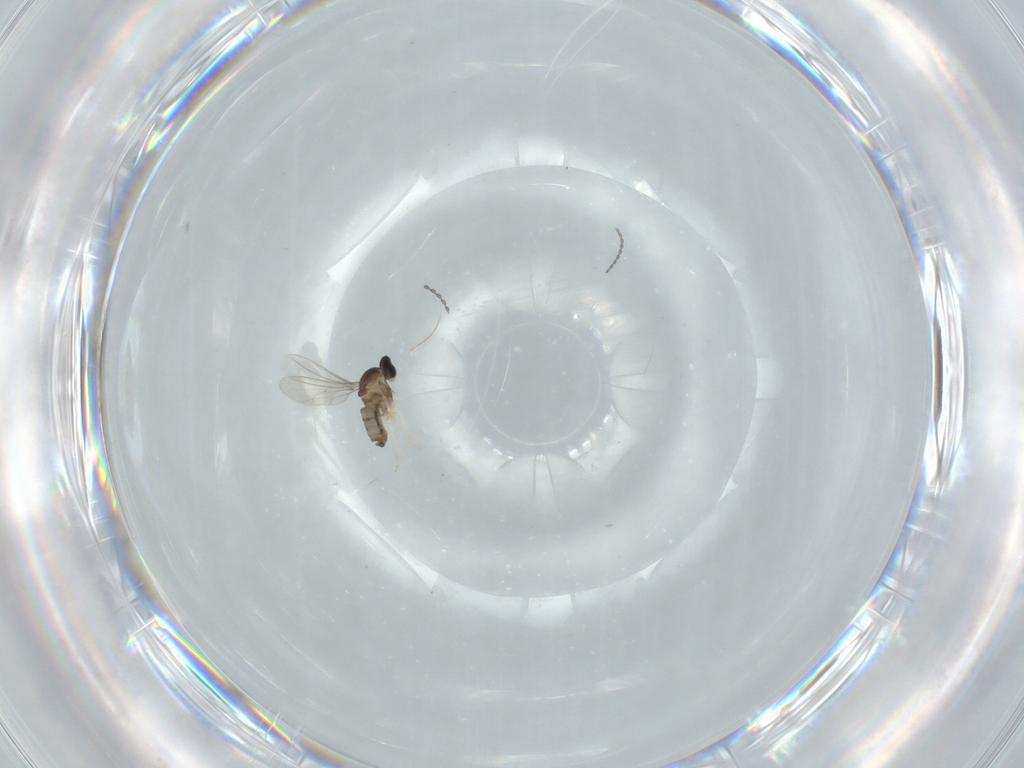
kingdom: Animalia
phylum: Arthropoda
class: Insecta
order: Diptera
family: Cecidomyiidae
